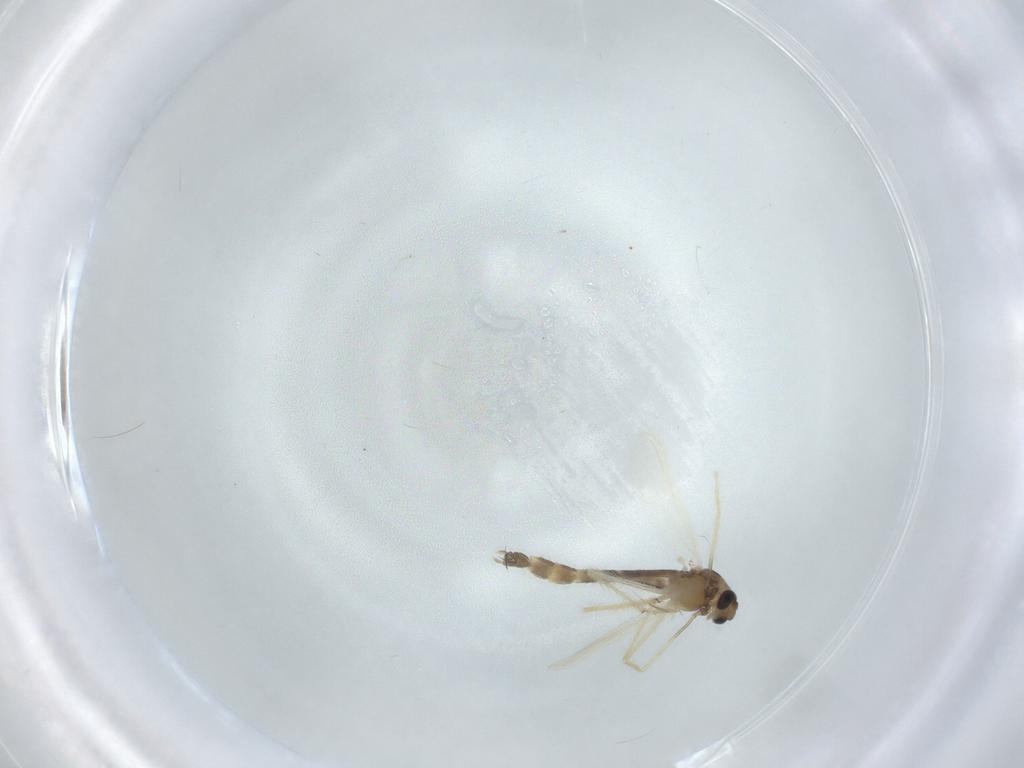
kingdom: Animalia
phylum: Arthropoda
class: Insecta
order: Diptera
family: Chironomidae
